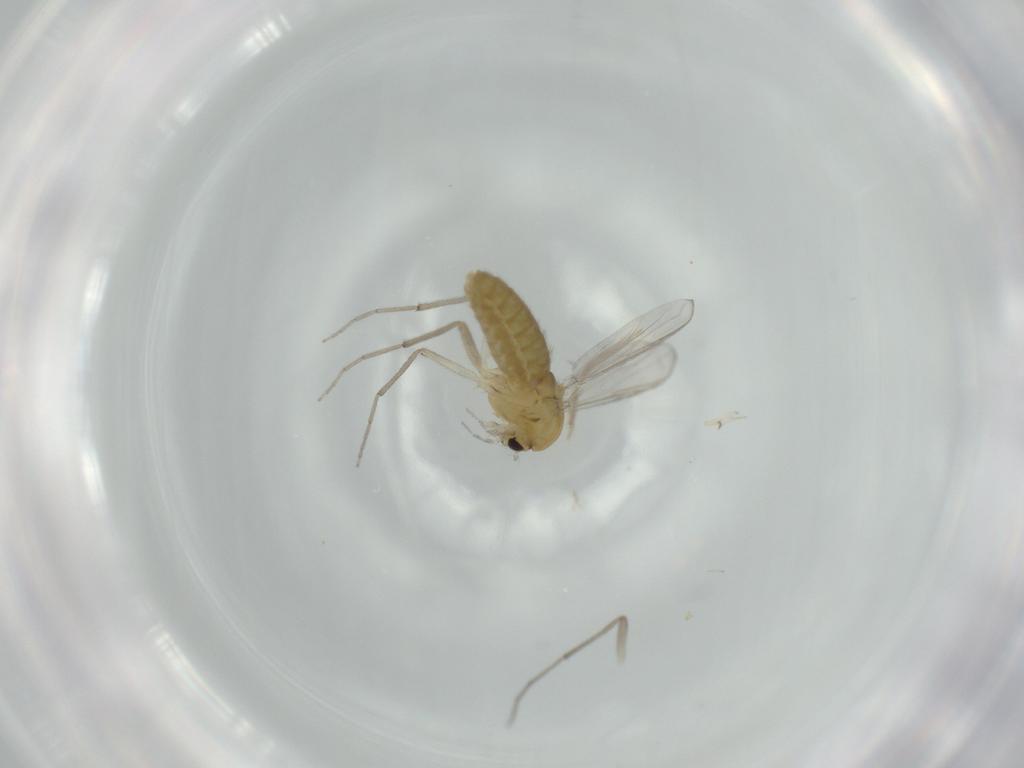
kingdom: Animalia
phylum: Arthropoda
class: Insecta
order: Diptera
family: Chironomidae
